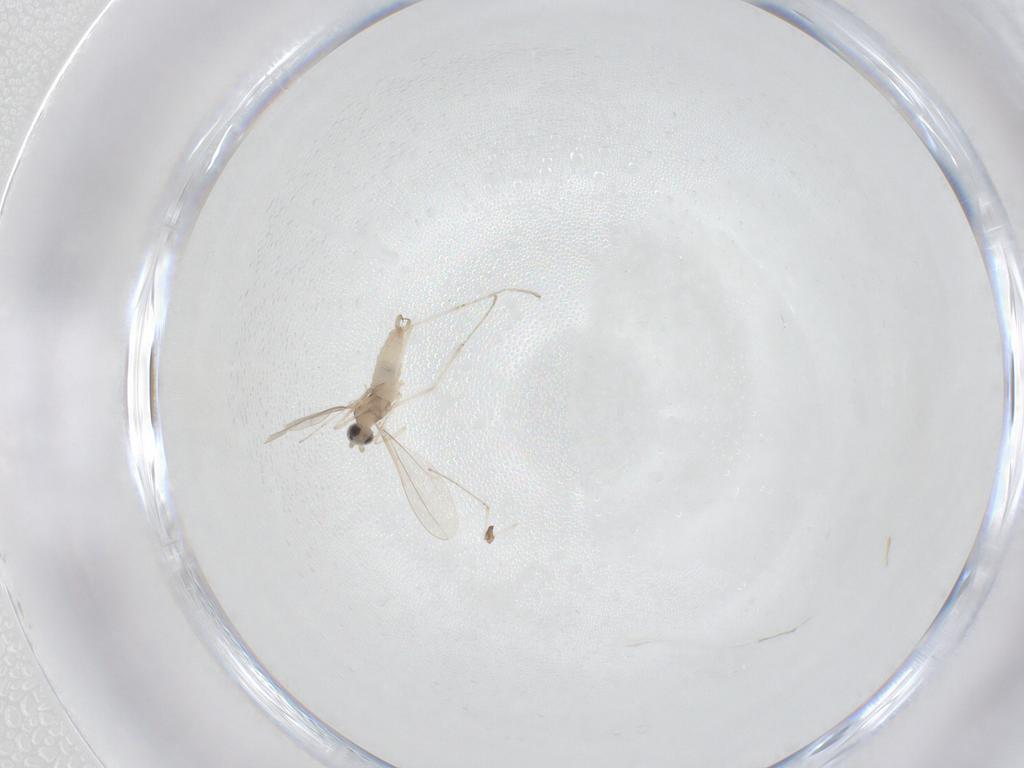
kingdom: Animalia
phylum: Arthropoda
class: Insecta
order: Diptera
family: Cecidomyiidae
